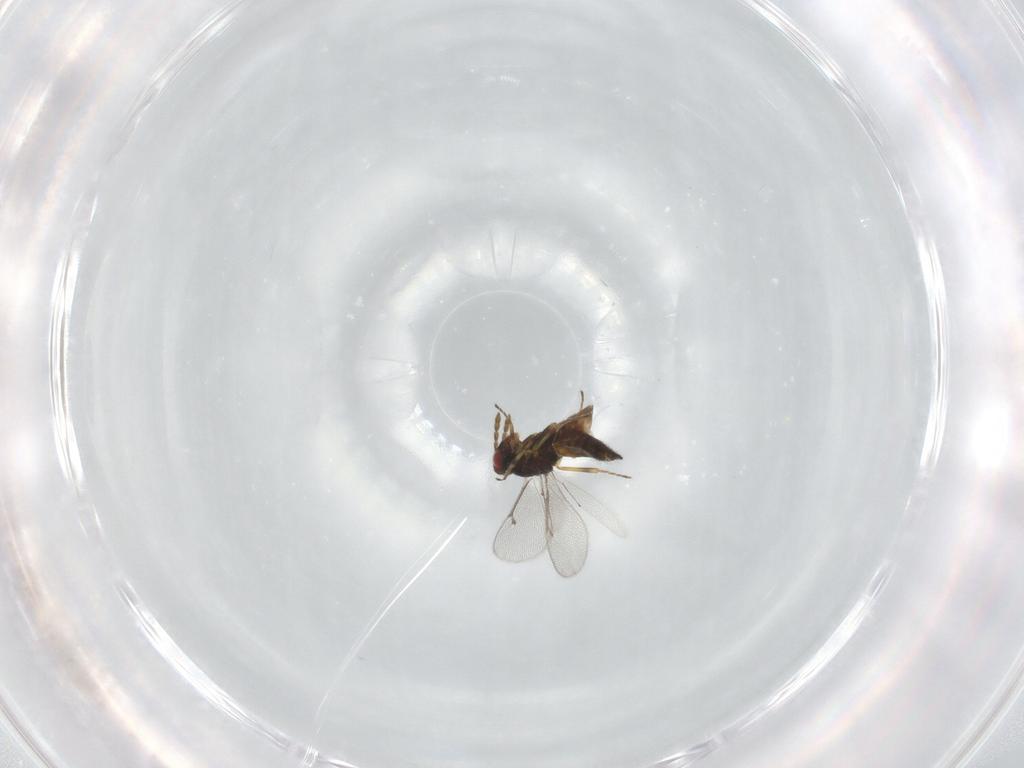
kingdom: Animalia
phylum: Arthropoda
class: Insecta
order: Hymenoptera
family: Eulophidae
